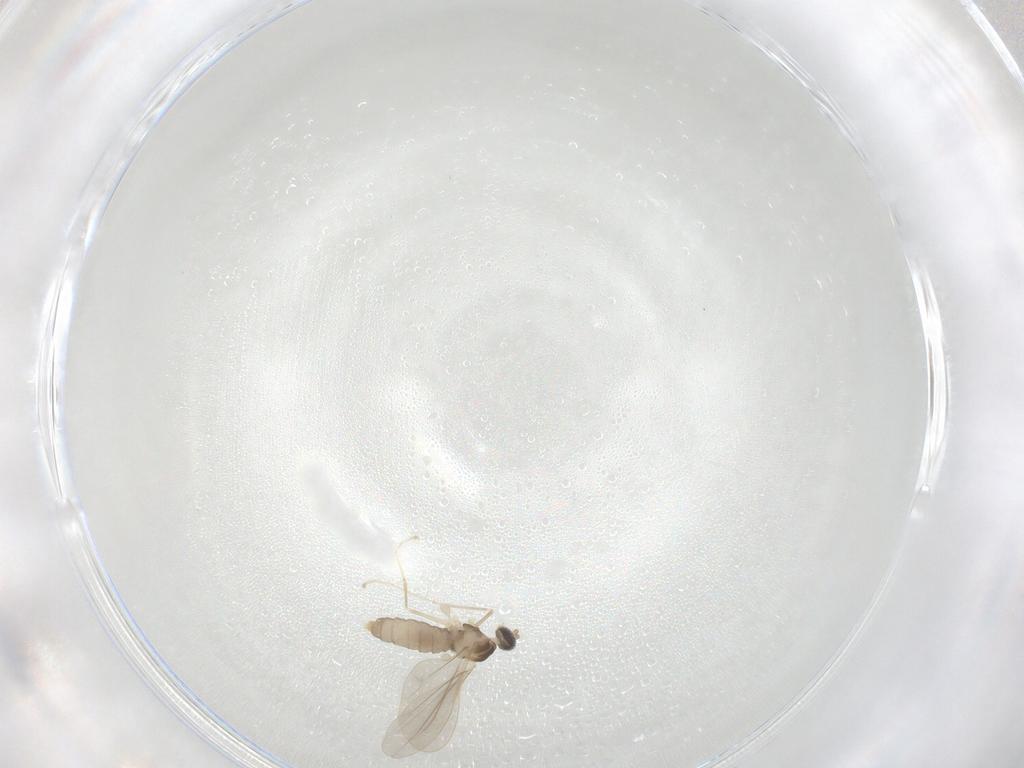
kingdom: Animalia
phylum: Arthropoda
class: Insecta
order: Diptera
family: Cecidomyiidae
